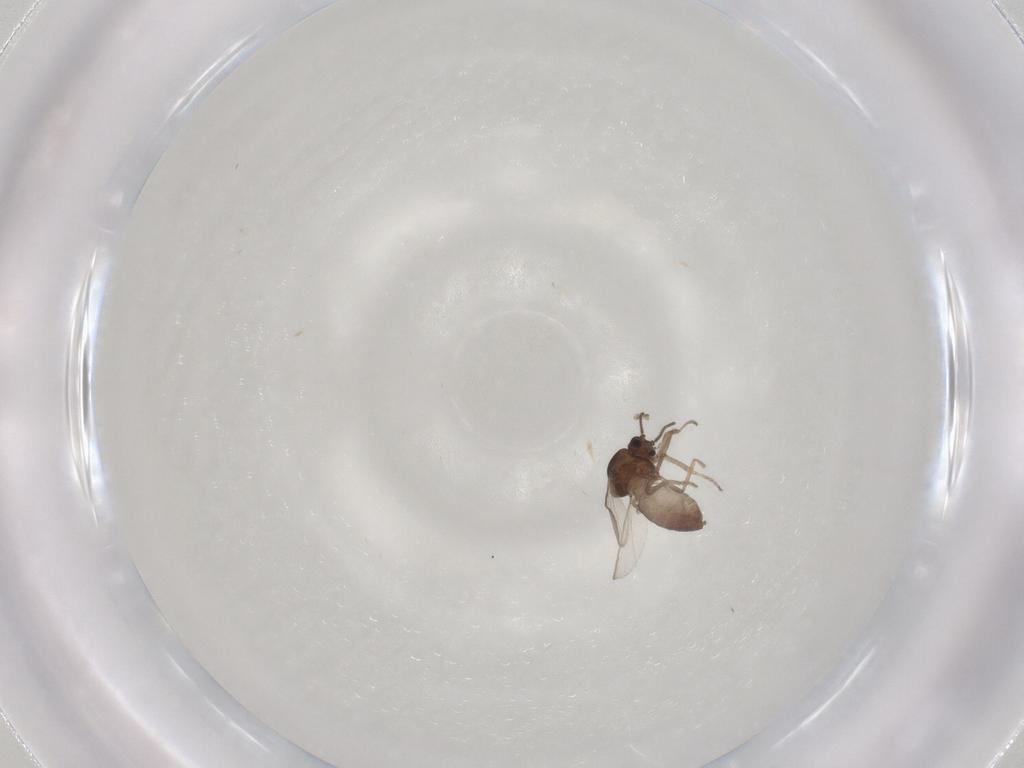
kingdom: Animalia
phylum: Arthropoda
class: Insecta
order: Diptera
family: Ceratopogonidae
